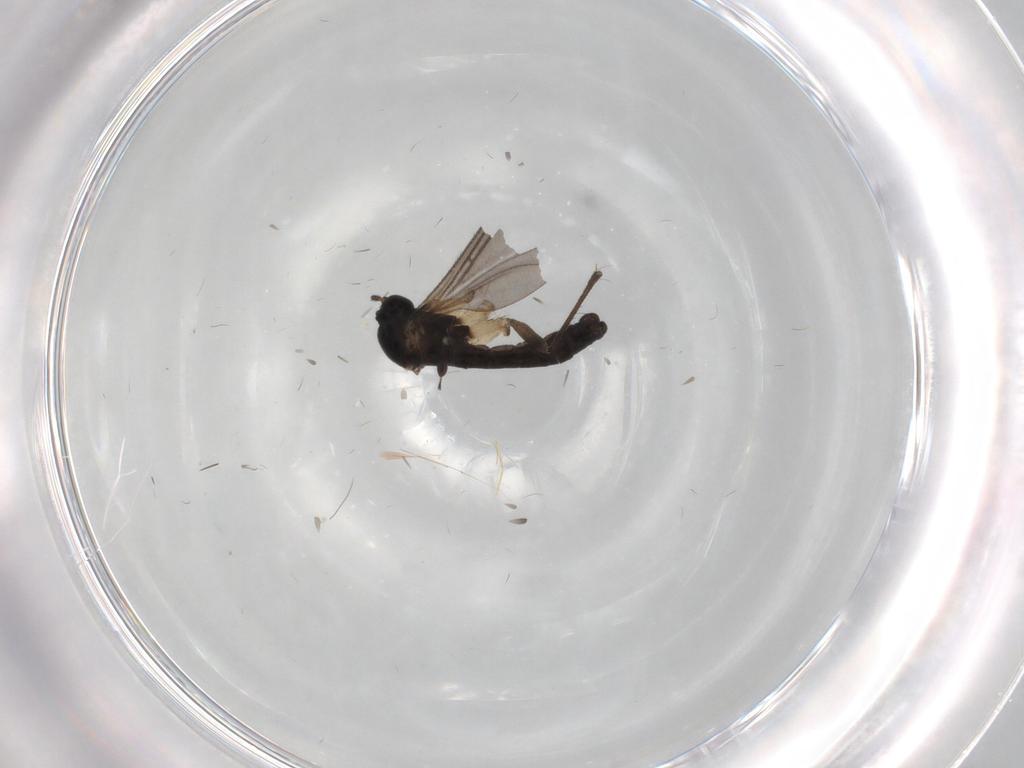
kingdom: Animalia
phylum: Arthropoda
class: Insecta
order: Diptera
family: Sciaridae
